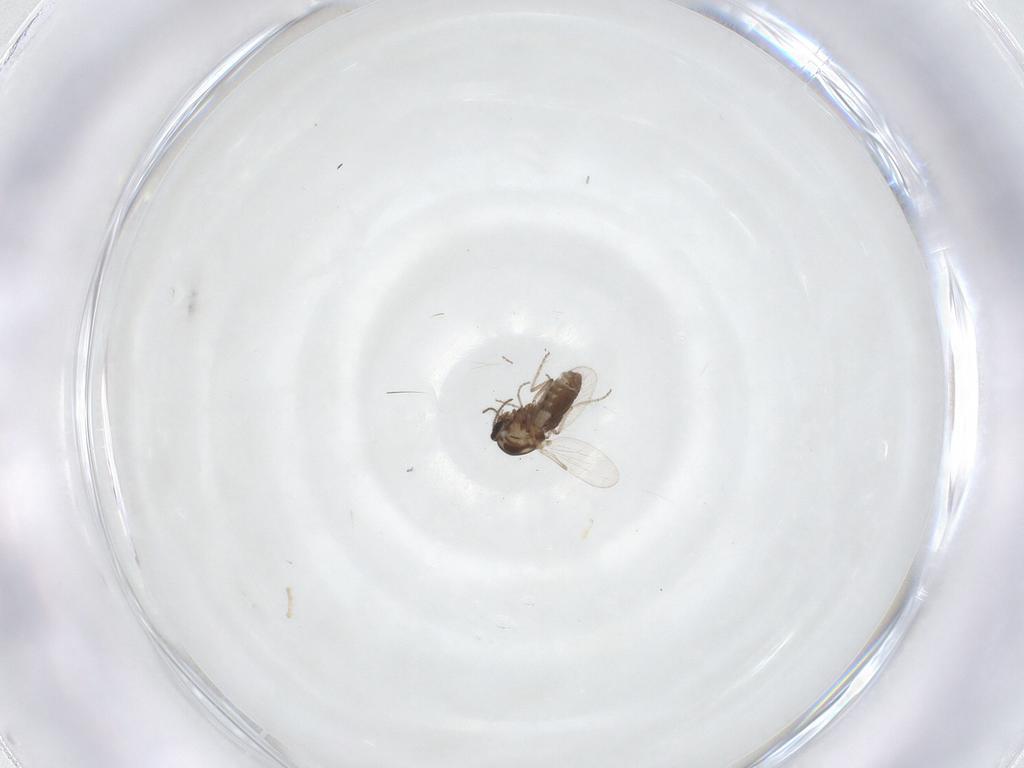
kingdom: Animalia
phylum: Arthropoda
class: Insecta
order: Diptera
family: Ceratopogonidae
